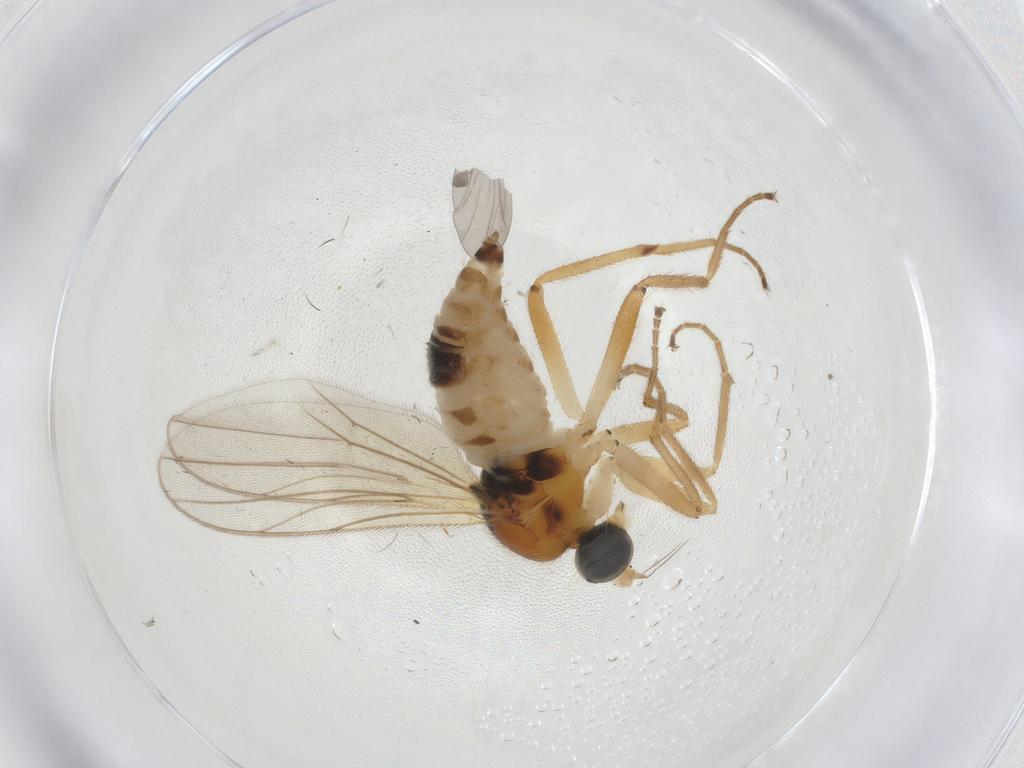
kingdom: Animalia
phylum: Arthropoda
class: Insecta
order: Diptera
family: Hybotidae
